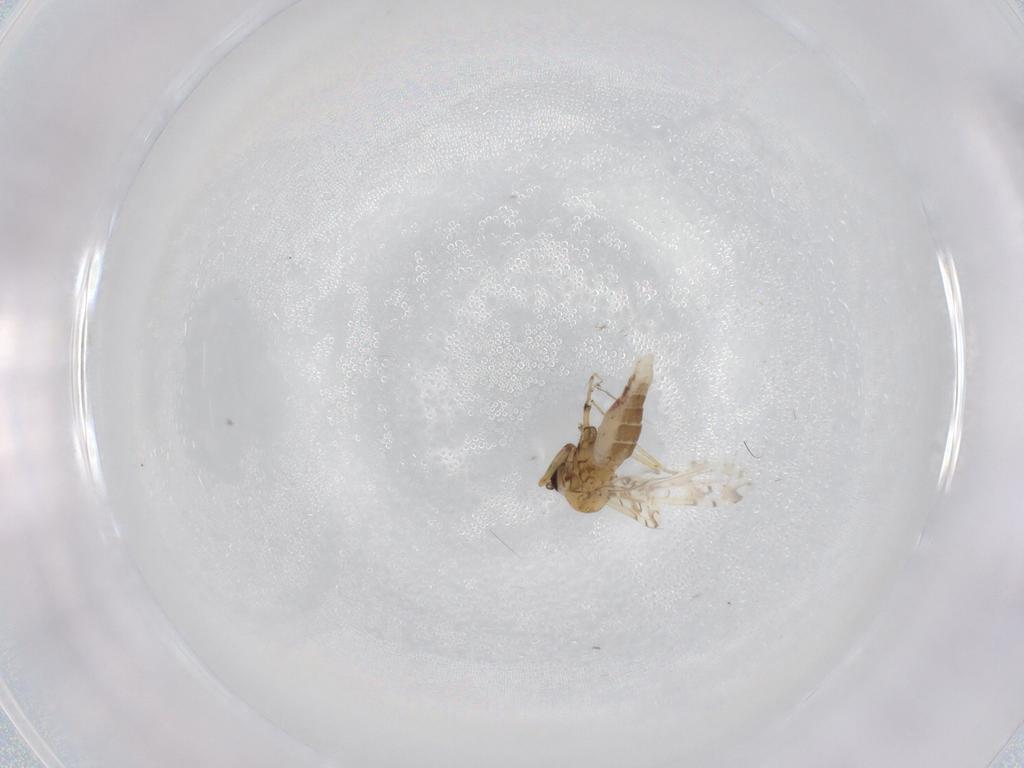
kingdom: Animalia
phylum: Arthropoda
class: Insecta
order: Diptera
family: Ceratopogonidae
